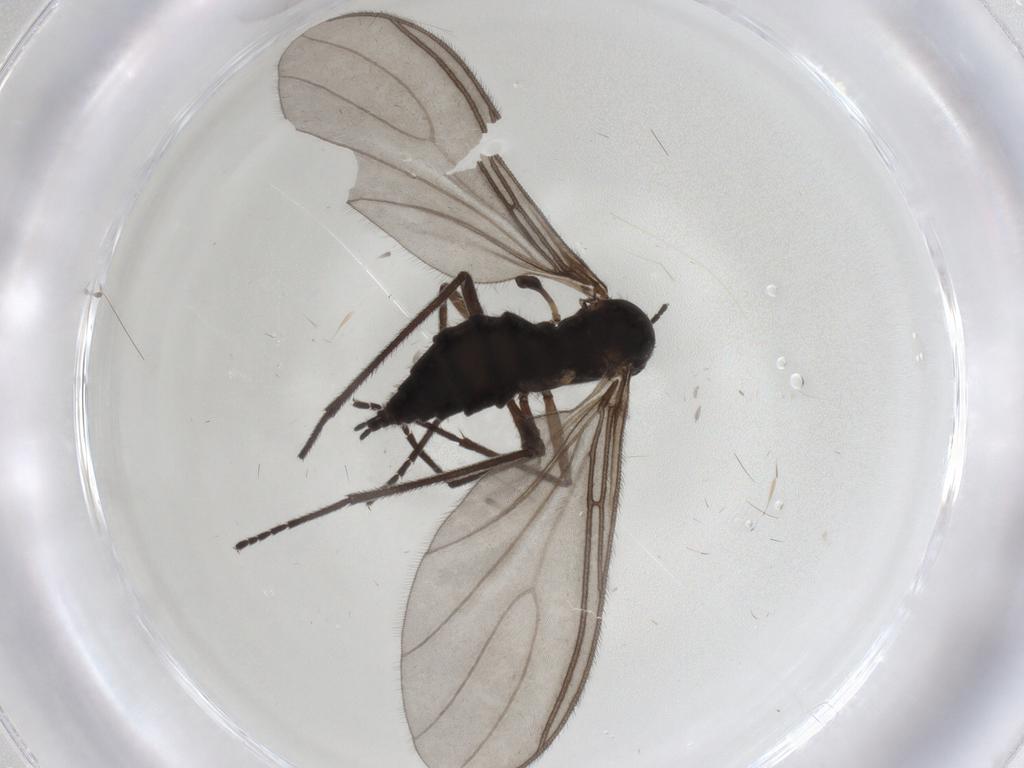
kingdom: Animalia
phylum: Arthropoda
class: Insecta
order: Diptera
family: Sciaridae
